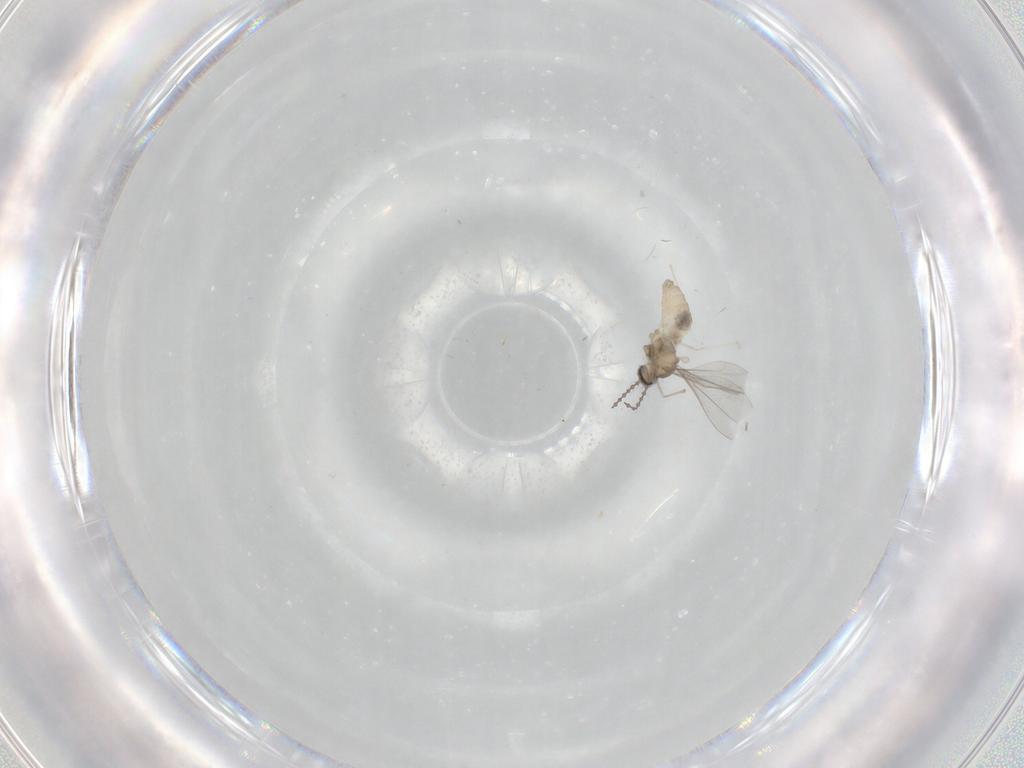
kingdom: Animalia
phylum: Arthropoda
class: Insecta
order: Diptera
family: Cecidomyiidae
